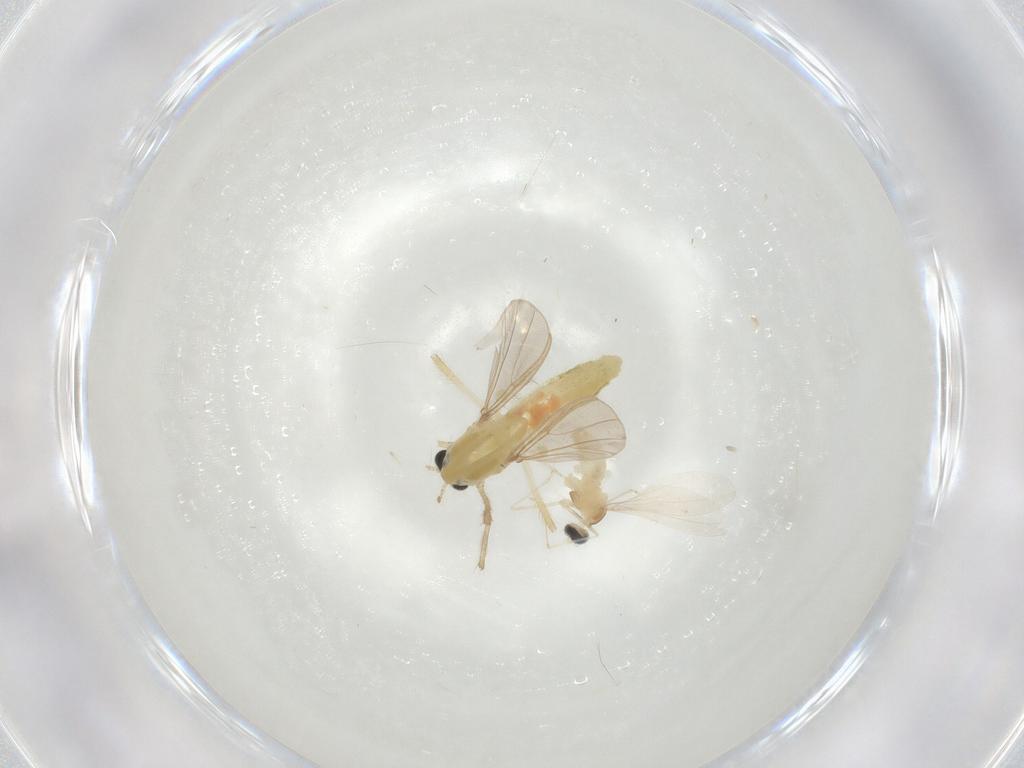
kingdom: Animalia
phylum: Arthropoda
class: Insecta
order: Diptera
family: Cecidomyiidae
